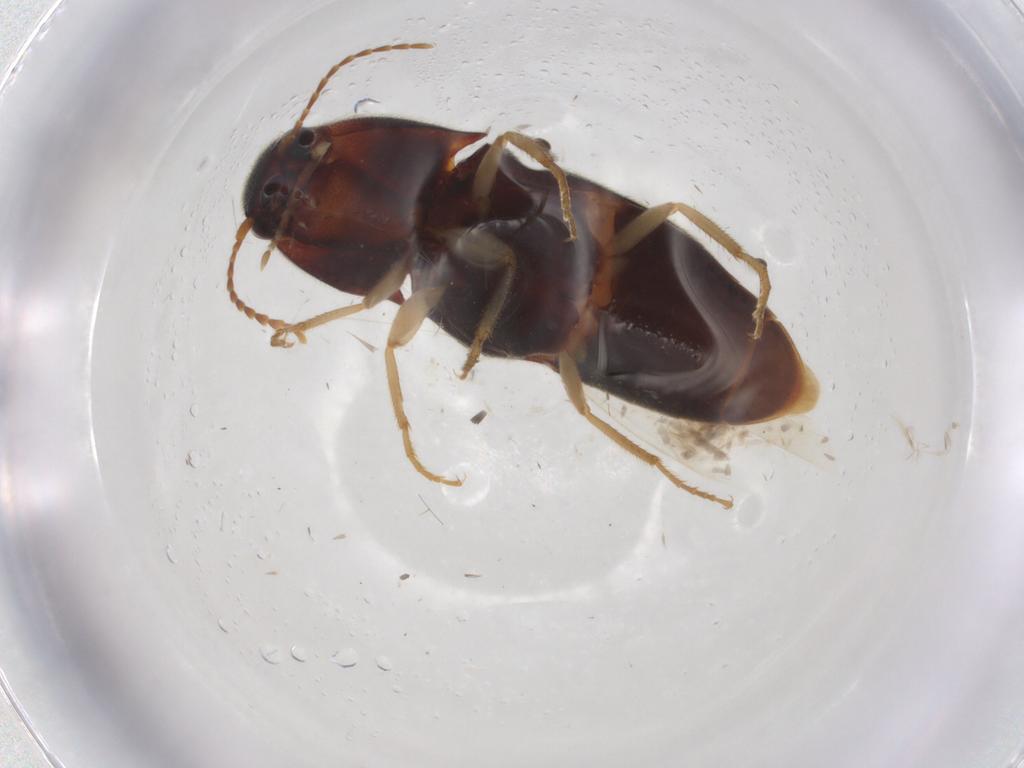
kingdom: Animalia
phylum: Arthropoda
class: Insecta
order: Coleoptera
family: Elateridae
